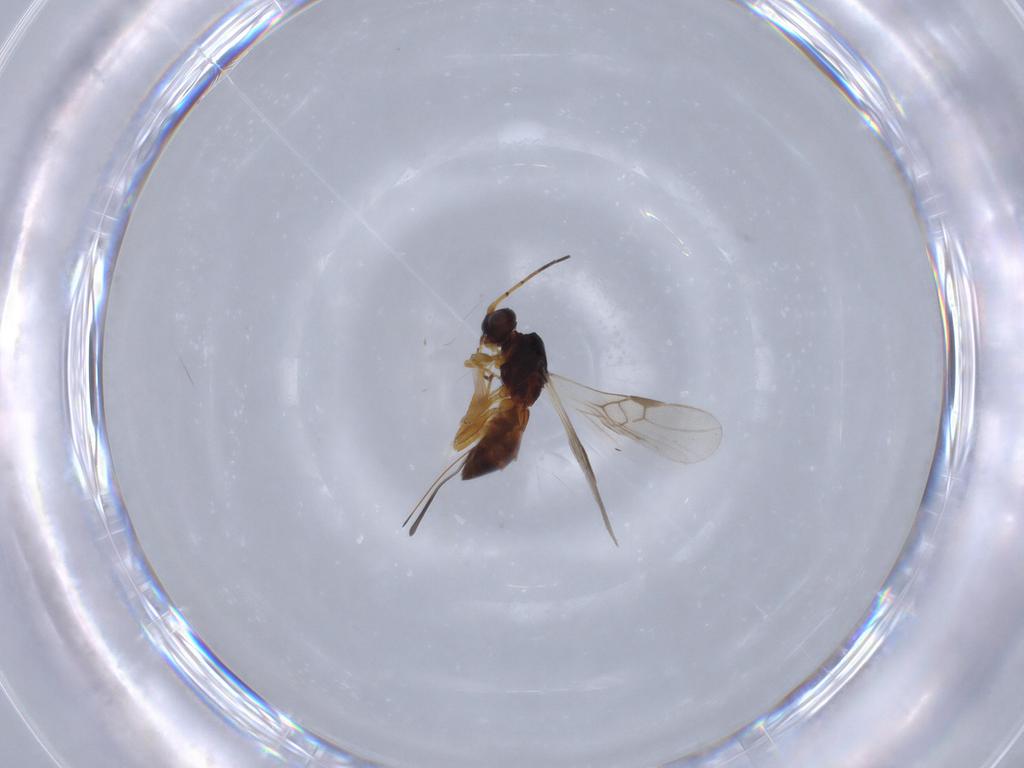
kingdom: Animalia
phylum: Arthropoda
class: Insecta
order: Hymenoptera
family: Braconidae
